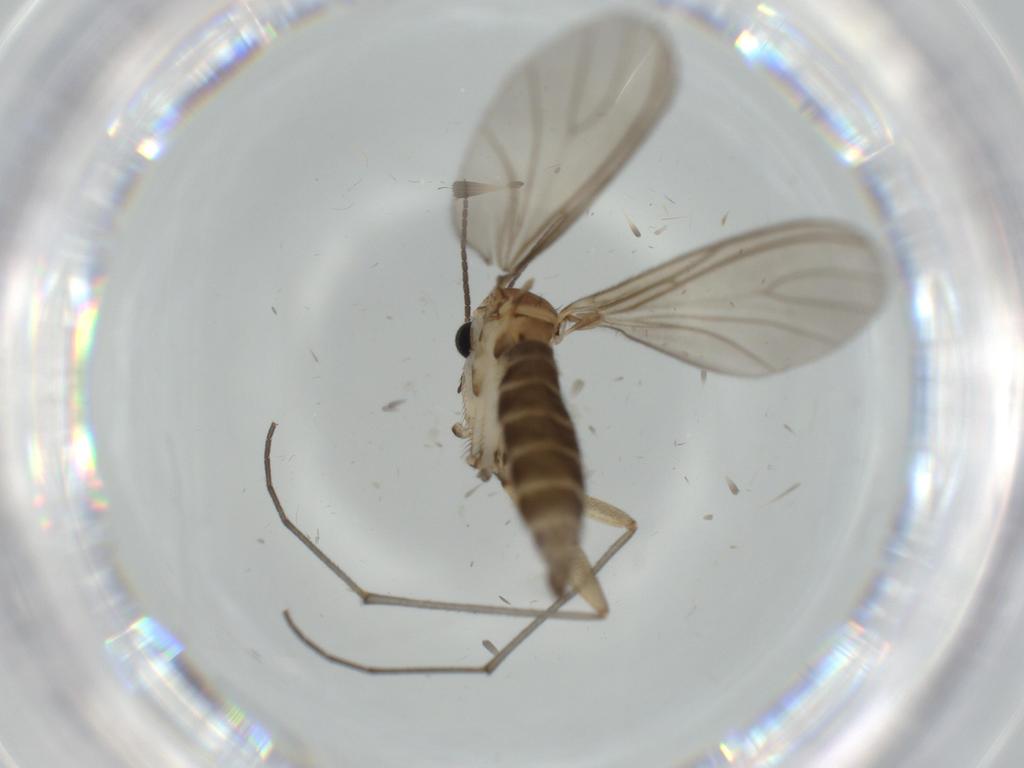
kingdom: Animalia
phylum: Arthropoda
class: Insecta
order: Diptera
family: Sciaridae
